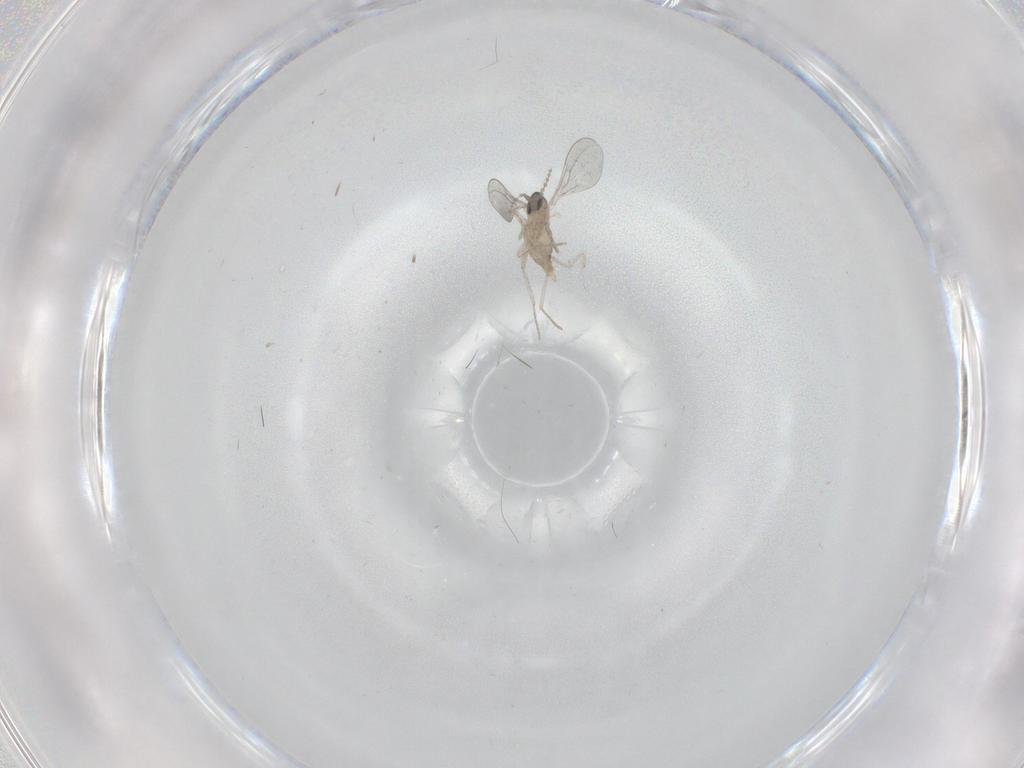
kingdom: Animalia
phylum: Arthropoda
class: Insecta
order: Diptera
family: Cecidomyiidae
